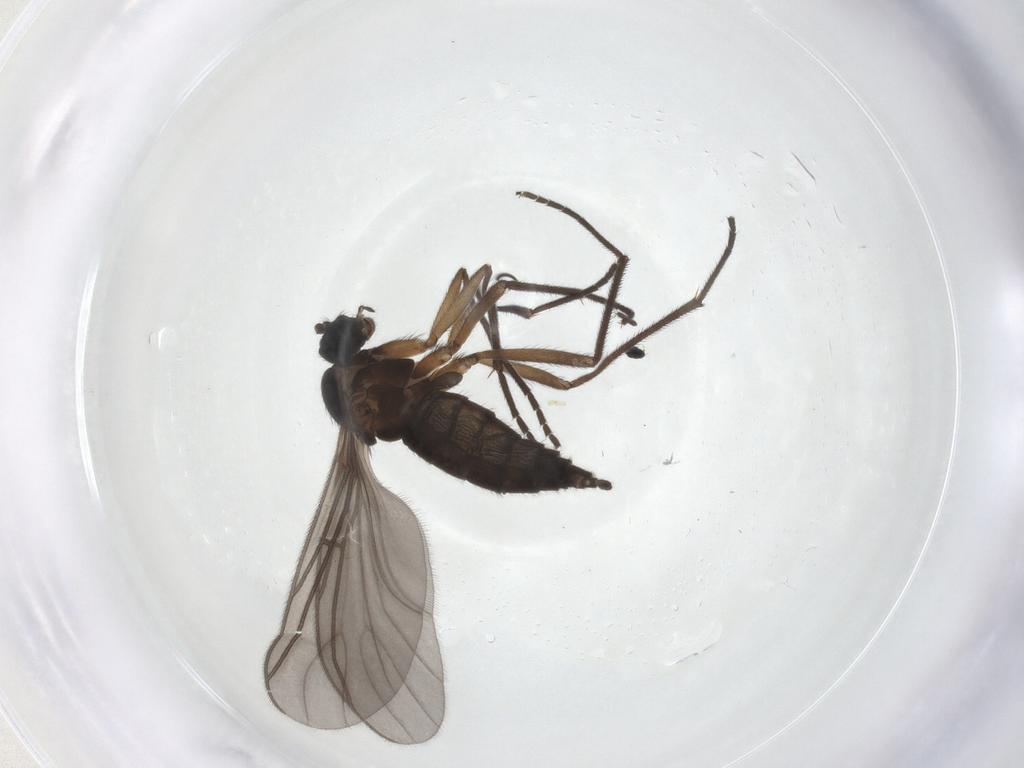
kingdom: Animalia
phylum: Arthropoda
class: Insecta
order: Diptera
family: Sciaridae
